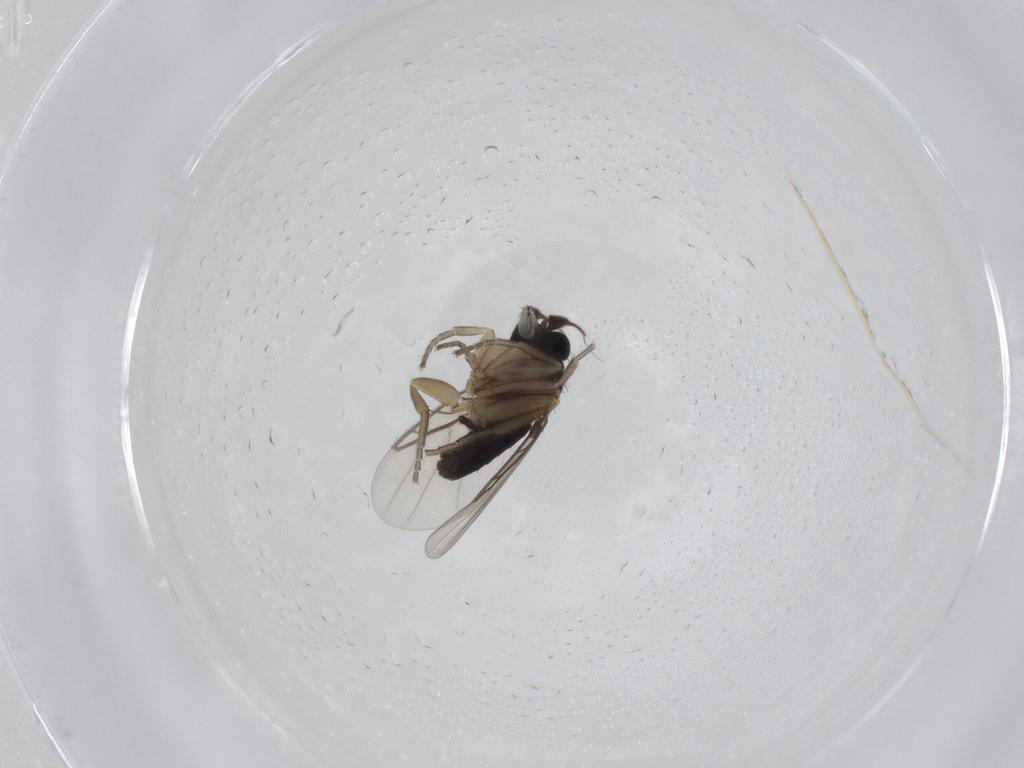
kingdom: Animalia
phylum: Arthropoda
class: Insecta
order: Diptera
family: Phoridae
